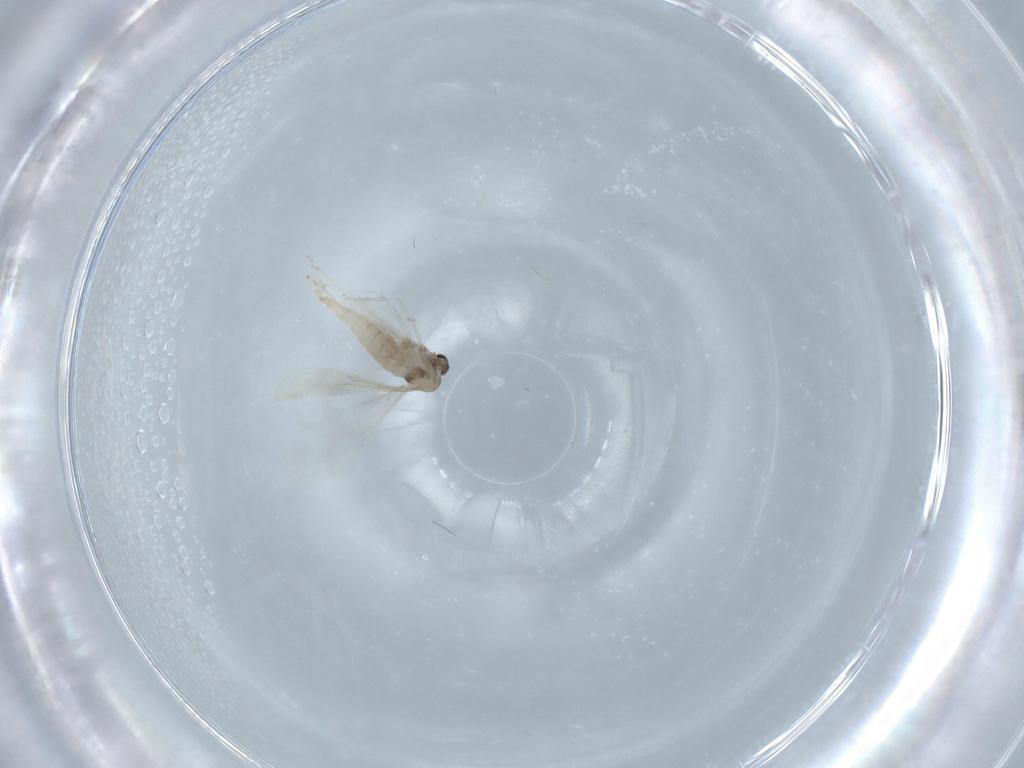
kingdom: Animalia
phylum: Arthropoda
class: Insecta
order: Diptera
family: Cecidomyiidae
